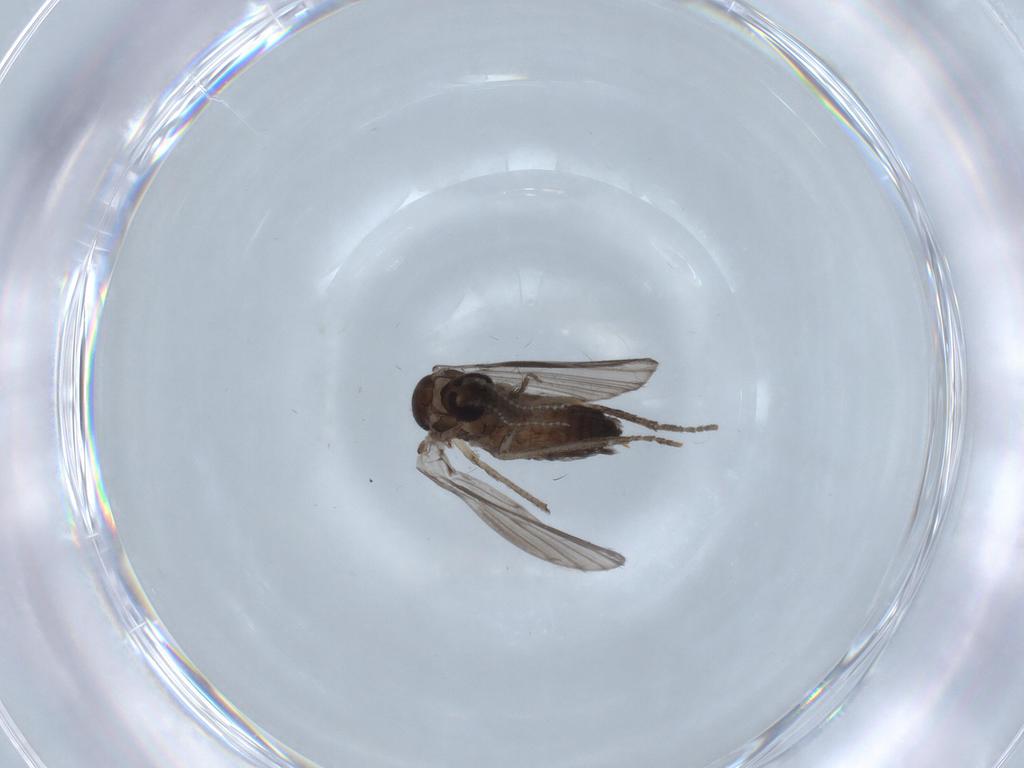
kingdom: Animalia
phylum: Arthropoda
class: Insecta
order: Diptera
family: Psychodidae
